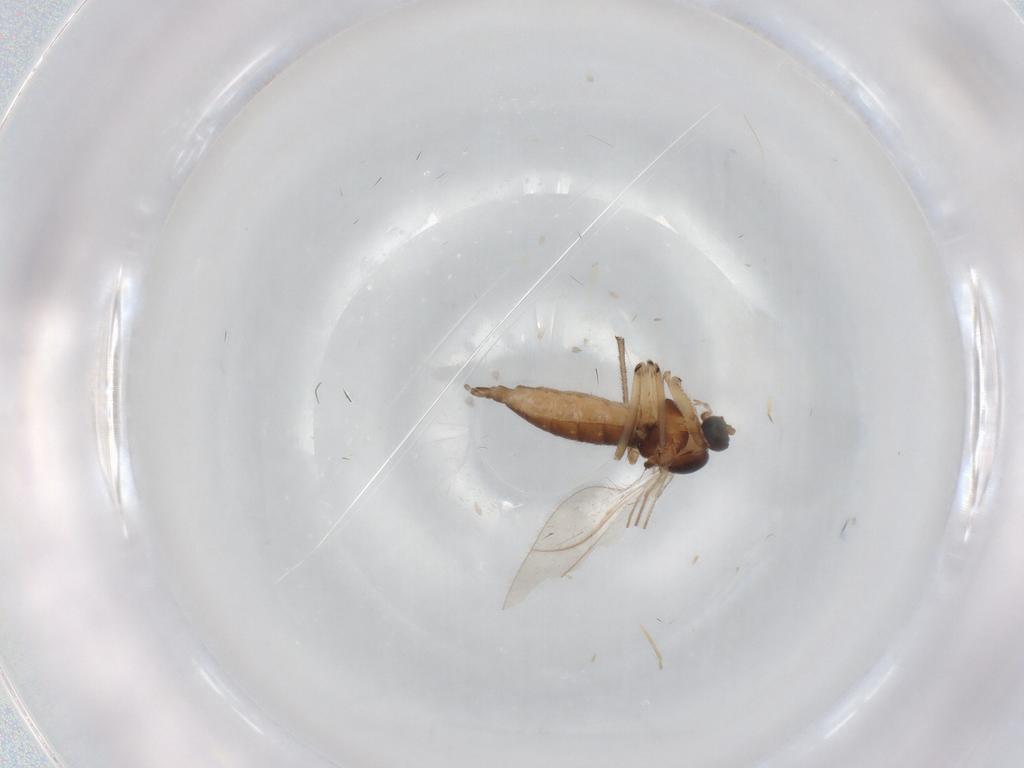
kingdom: Animalia
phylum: Arthropoda
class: Insecta
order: Diptera
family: Sciaridae
